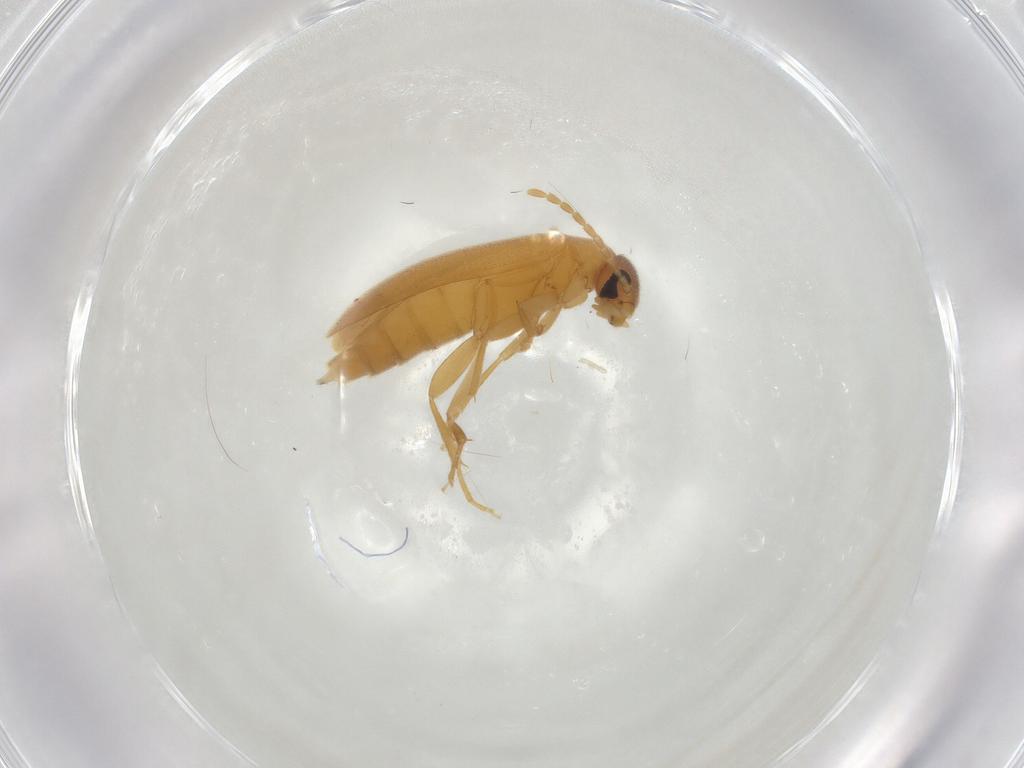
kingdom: Animalia
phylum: Arthropoda
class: Insecta
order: Coleoptera
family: Scraptiidae
